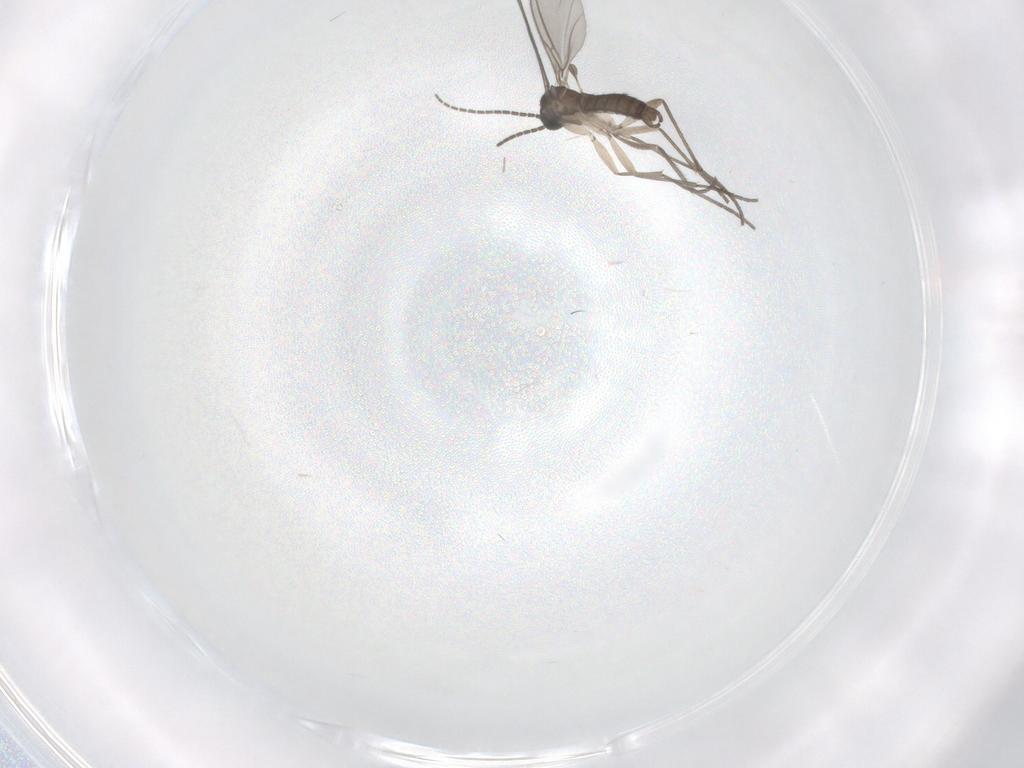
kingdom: Animalia
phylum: Arthropoda
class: Insecta
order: Diptera
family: Sciaridae
